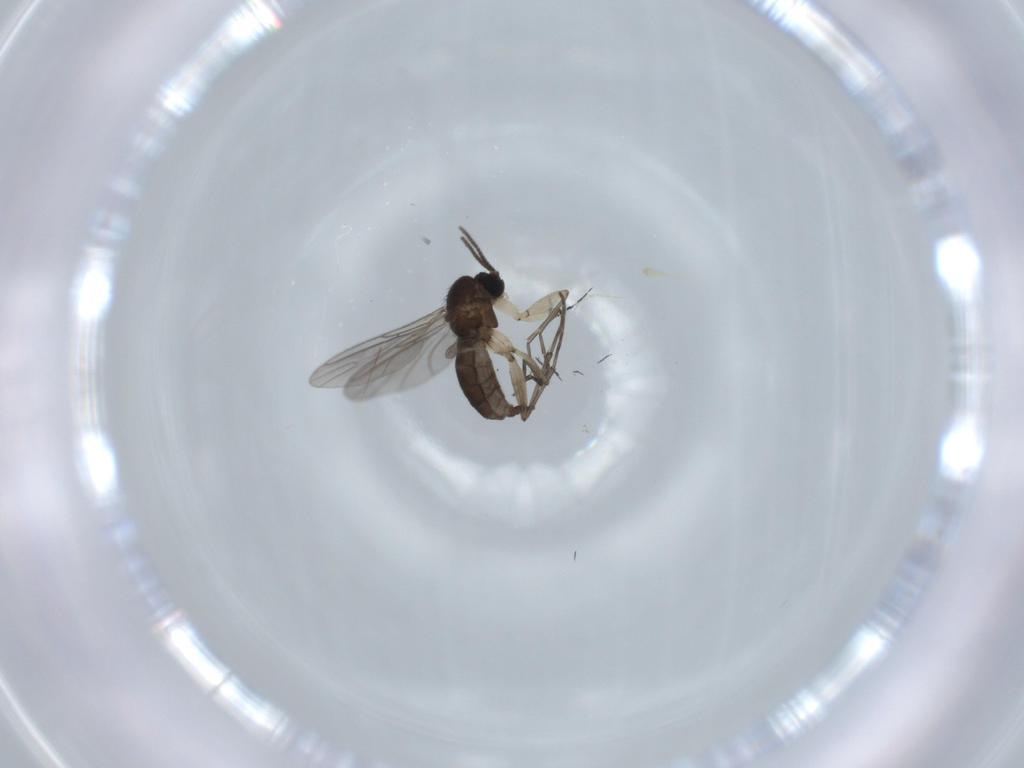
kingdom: Animalia
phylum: Arthropoda
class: Insecta
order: Diptera
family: Sciaridae
